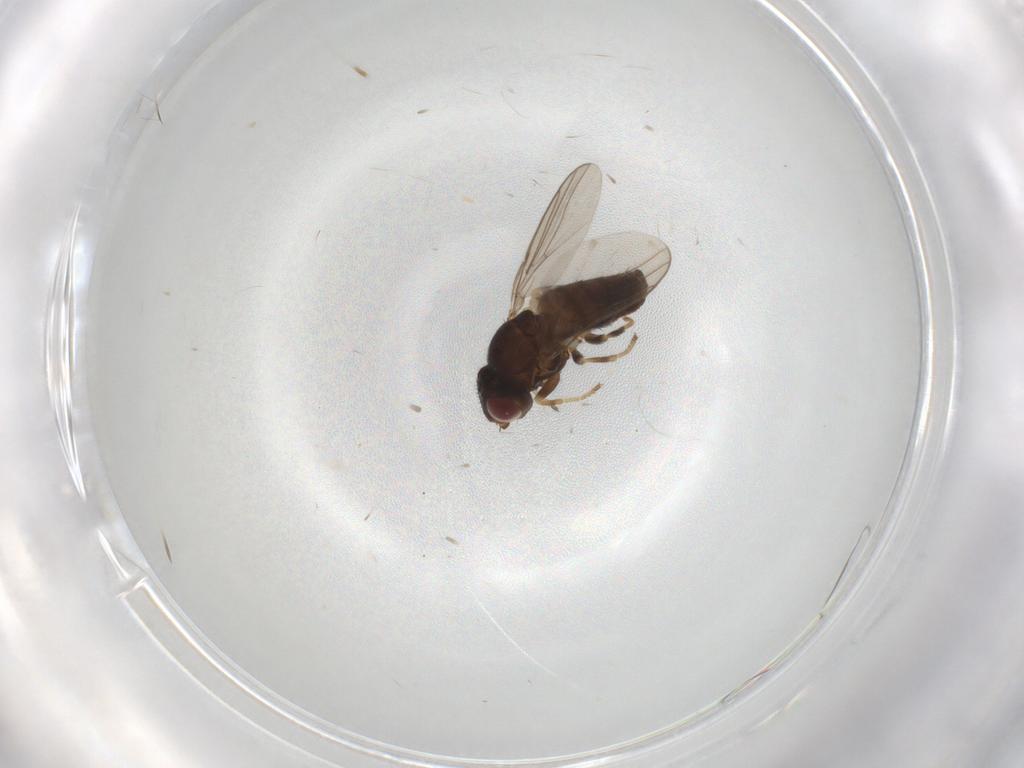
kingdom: Animalia
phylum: Arthropoda
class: Insecta
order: Diptera
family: Chloropidae
